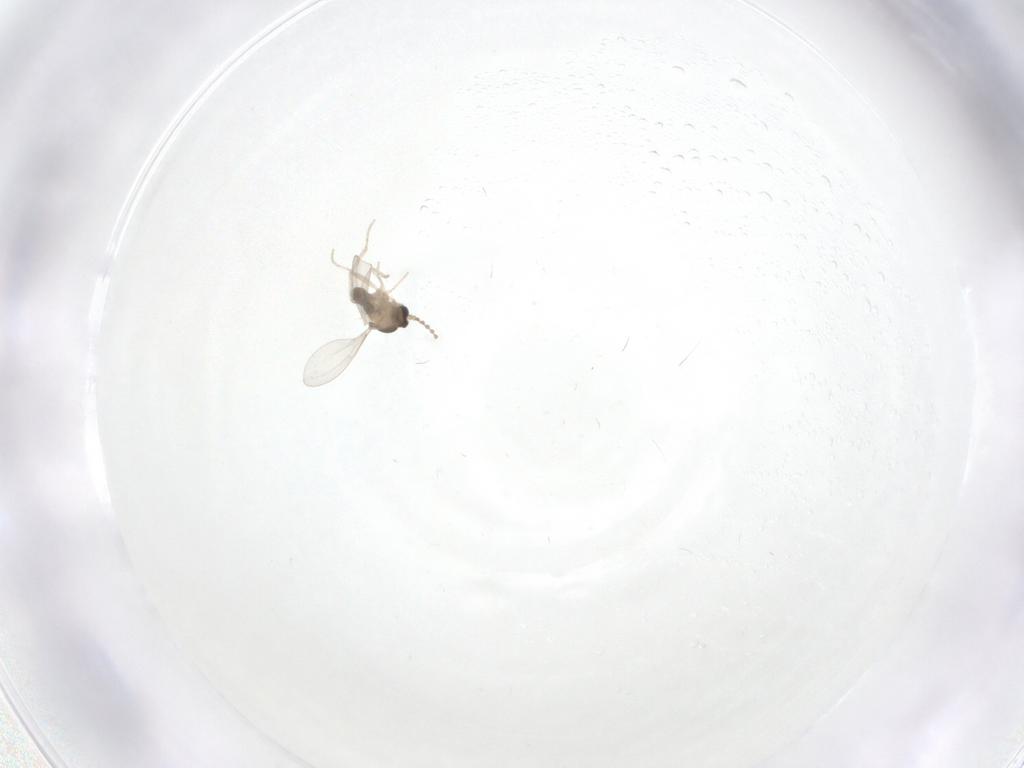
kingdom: Animalia
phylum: Arthropoda
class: Insecta
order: Diptera
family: Cecidomyiidae
